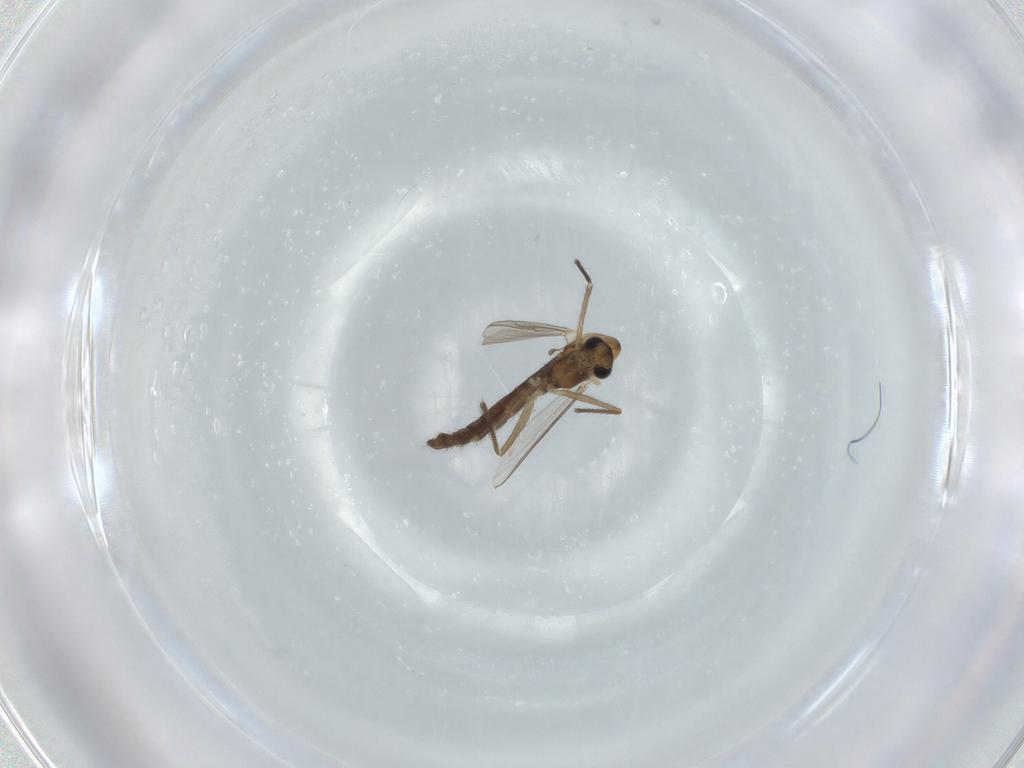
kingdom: Animalia
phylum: Arthropoda
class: Insecta
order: Diptera
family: Chironomidae
